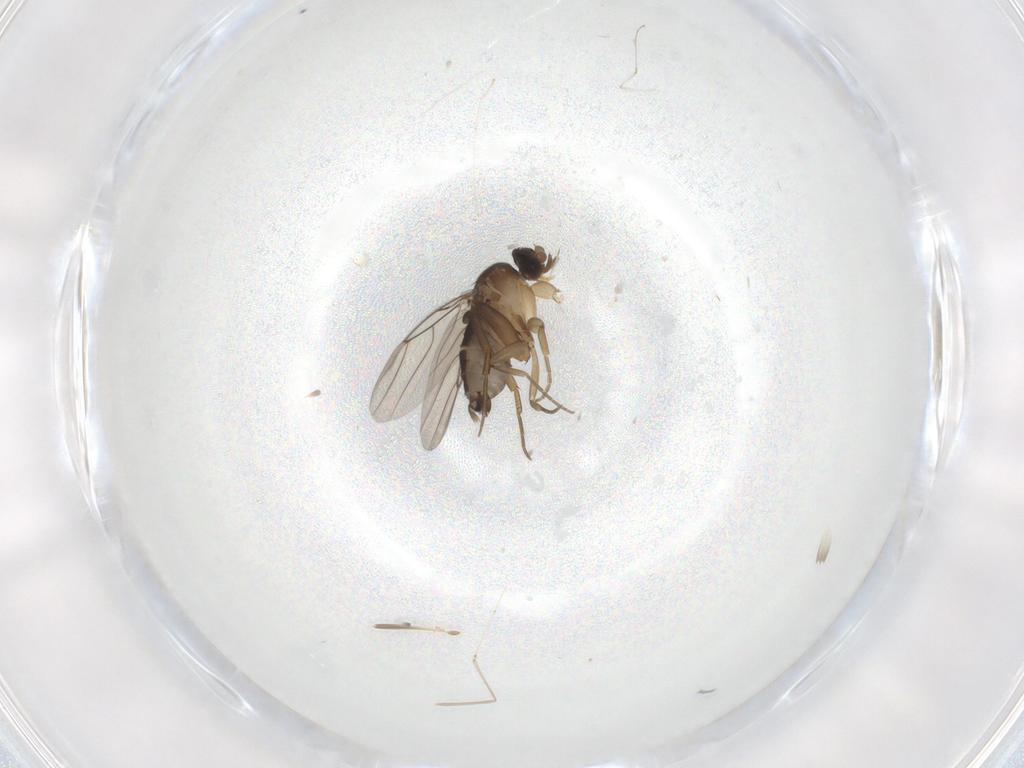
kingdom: Animalia
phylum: Arthropoda
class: Insecta
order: Diptera
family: Phoridae
